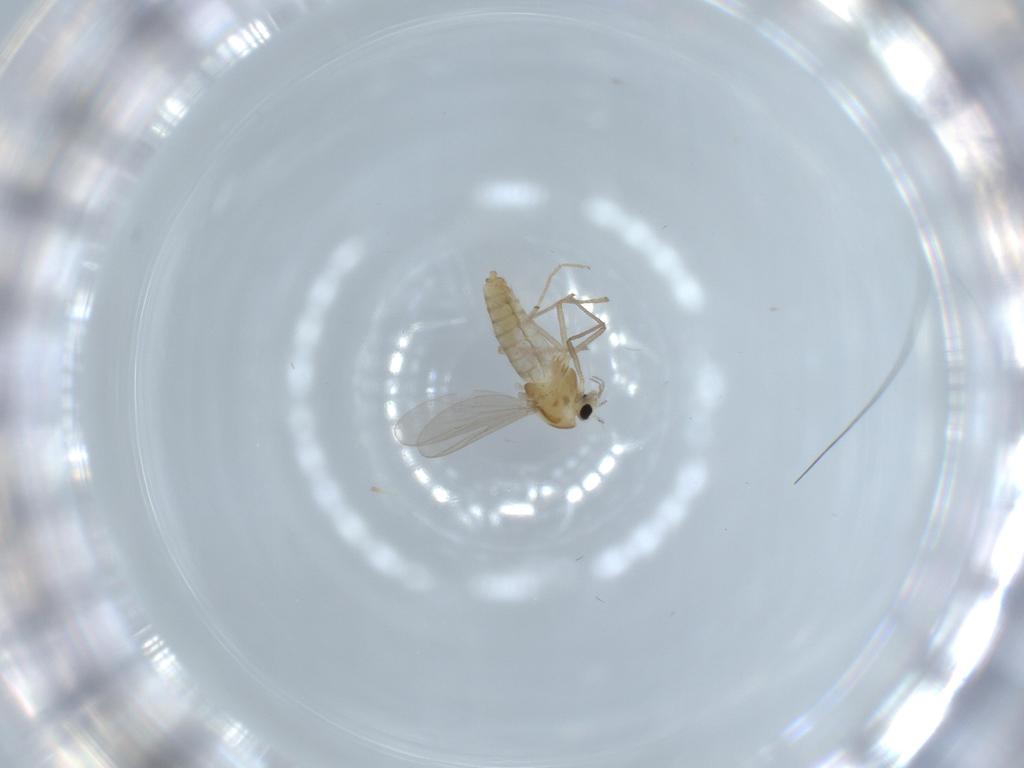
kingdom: Animalia
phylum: Arthropoda
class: Insecta
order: Diptera
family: Chironomidae
